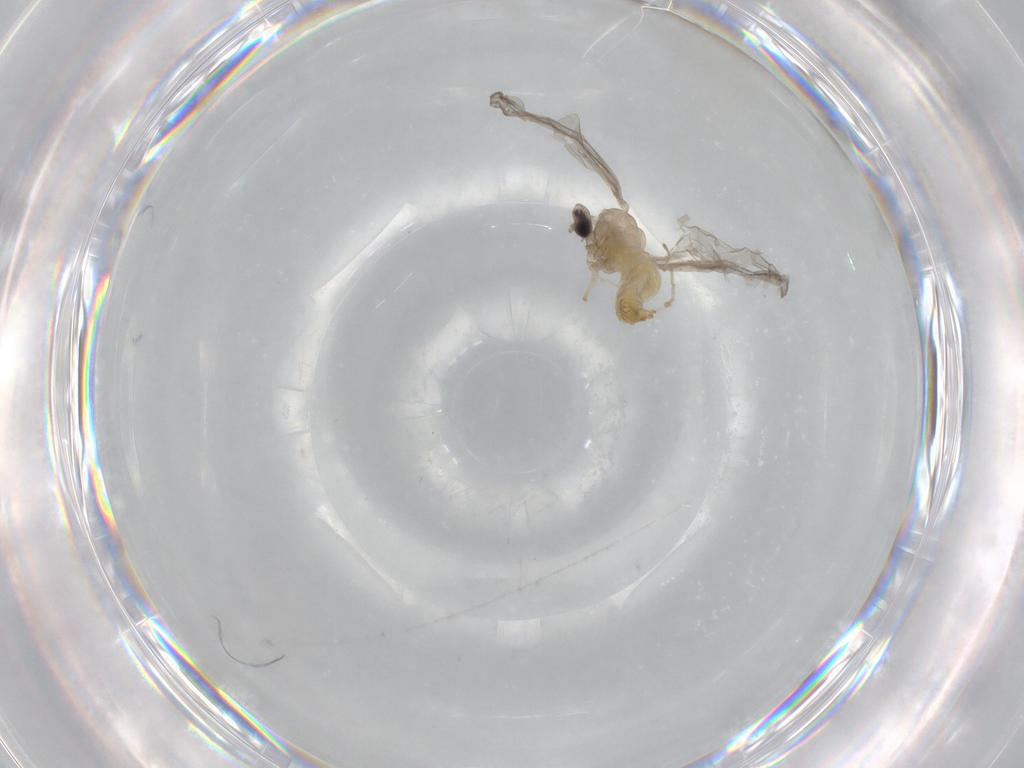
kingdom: Animalia
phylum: Arthropoda
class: Insecta
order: Diptera
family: Cecidomyiidae
